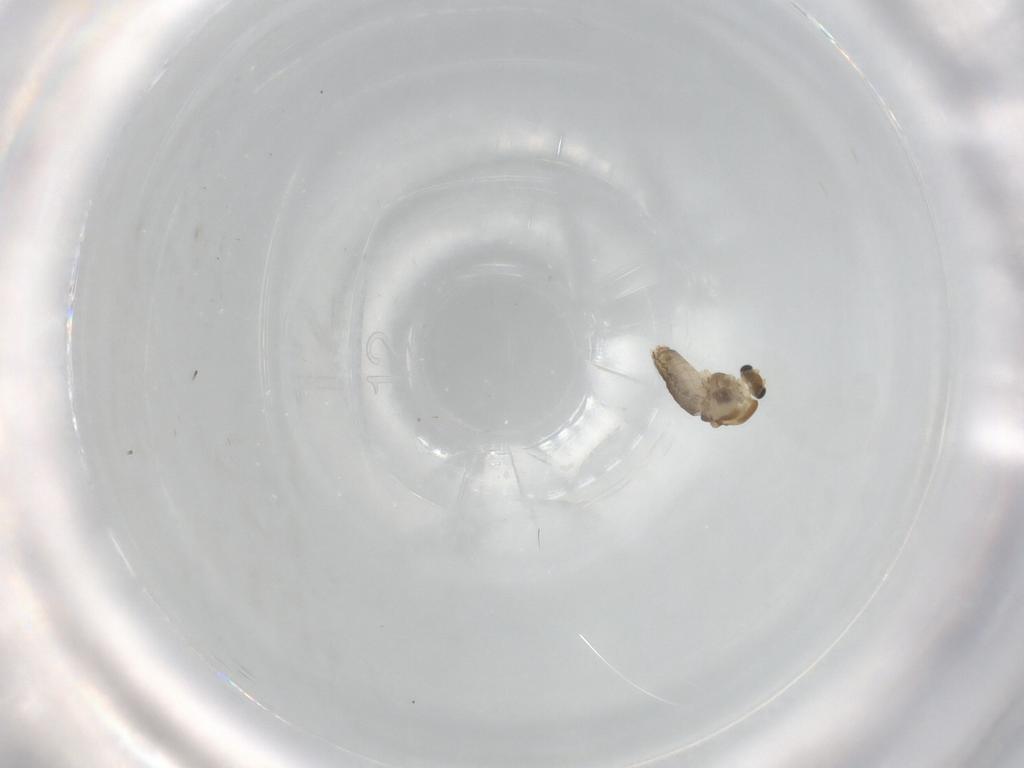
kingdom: Animalia
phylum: Arthropoda
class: Insecta
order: Diptera
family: Chironomidae
